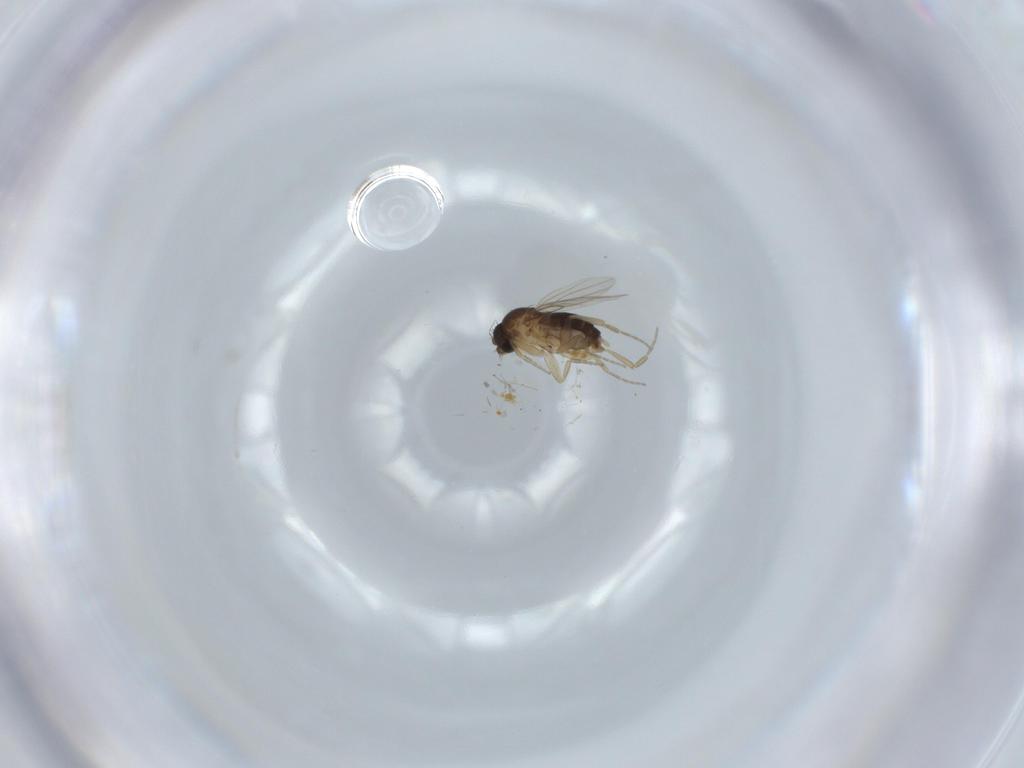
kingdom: Animalia
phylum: Arthropoda
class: Insecta
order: Diptera
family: Phoridae
